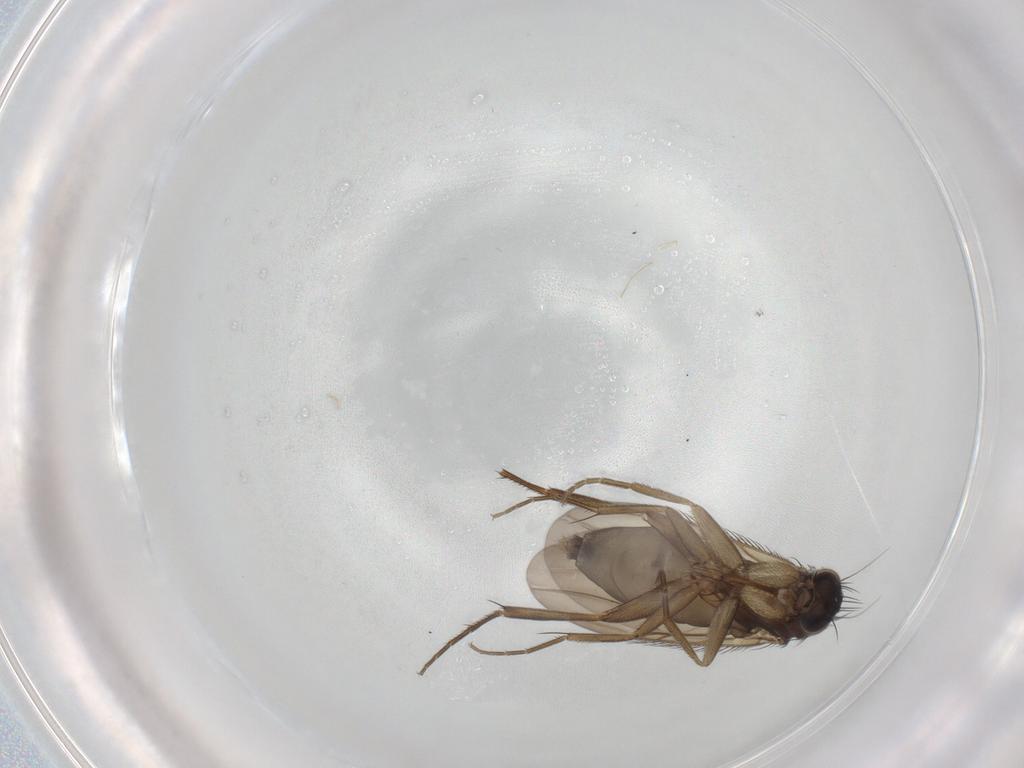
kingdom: Animalia
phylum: Arthropoda
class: Insecta
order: Diptera
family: Phoridae
